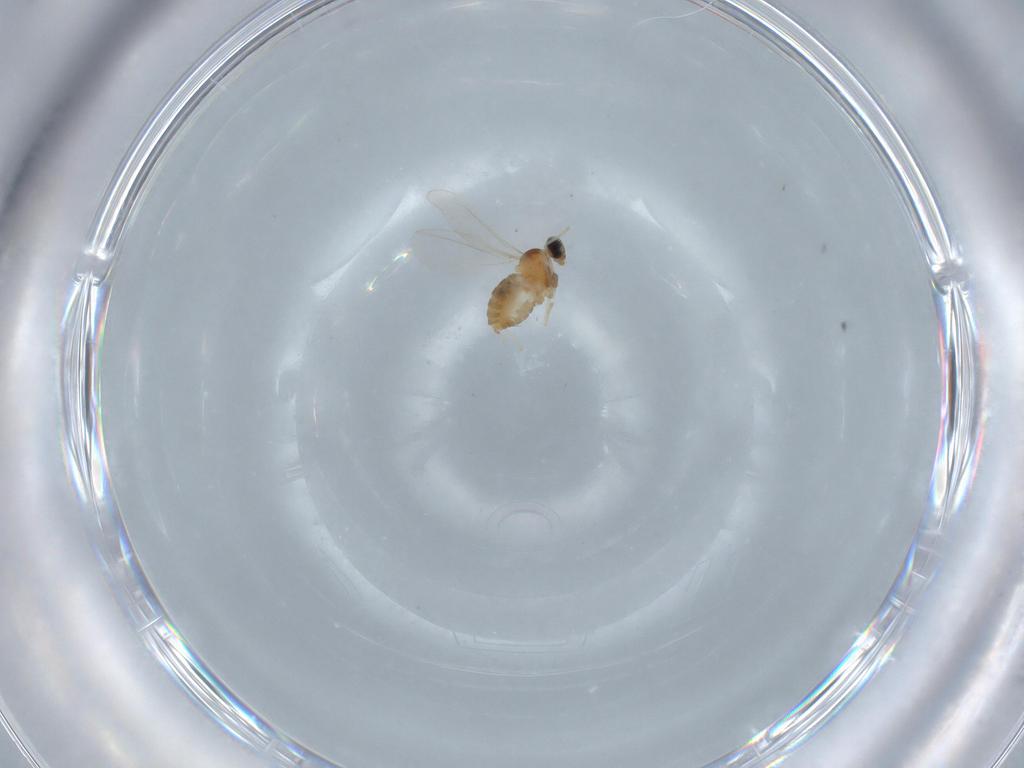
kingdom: Animalia
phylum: Arthropoda
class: Insecta
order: Diptera
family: Cecidomyiidae
